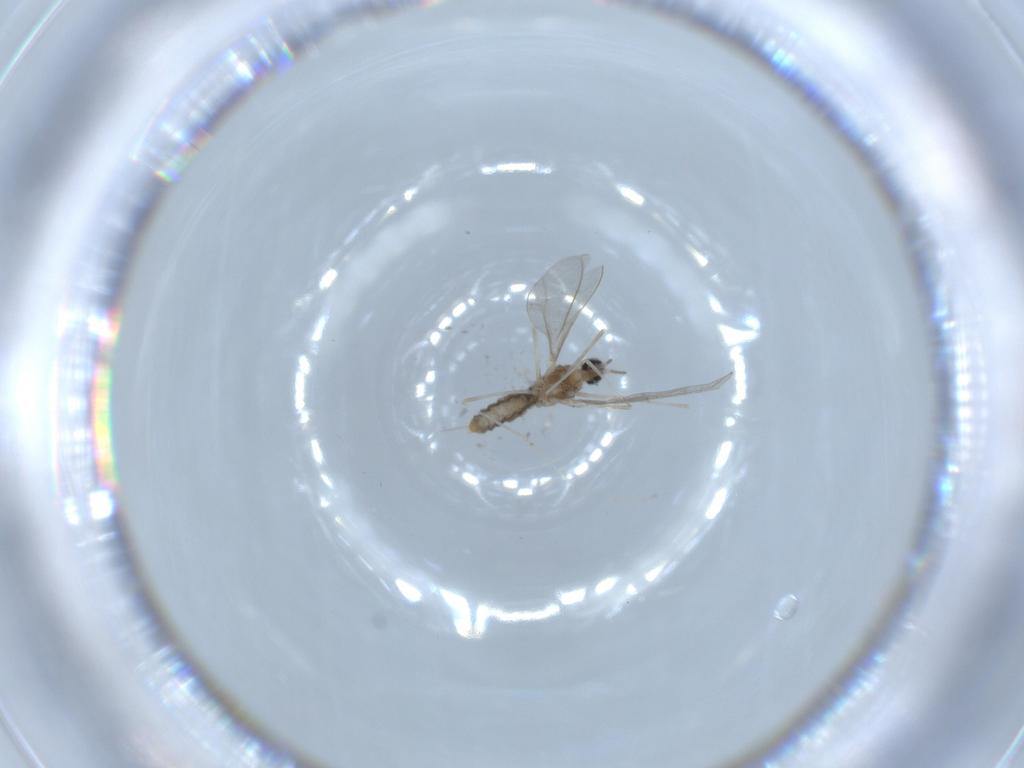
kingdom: Animalia
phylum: Arthropoda
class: Insecta
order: Diptera
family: Cecidomyiidae
